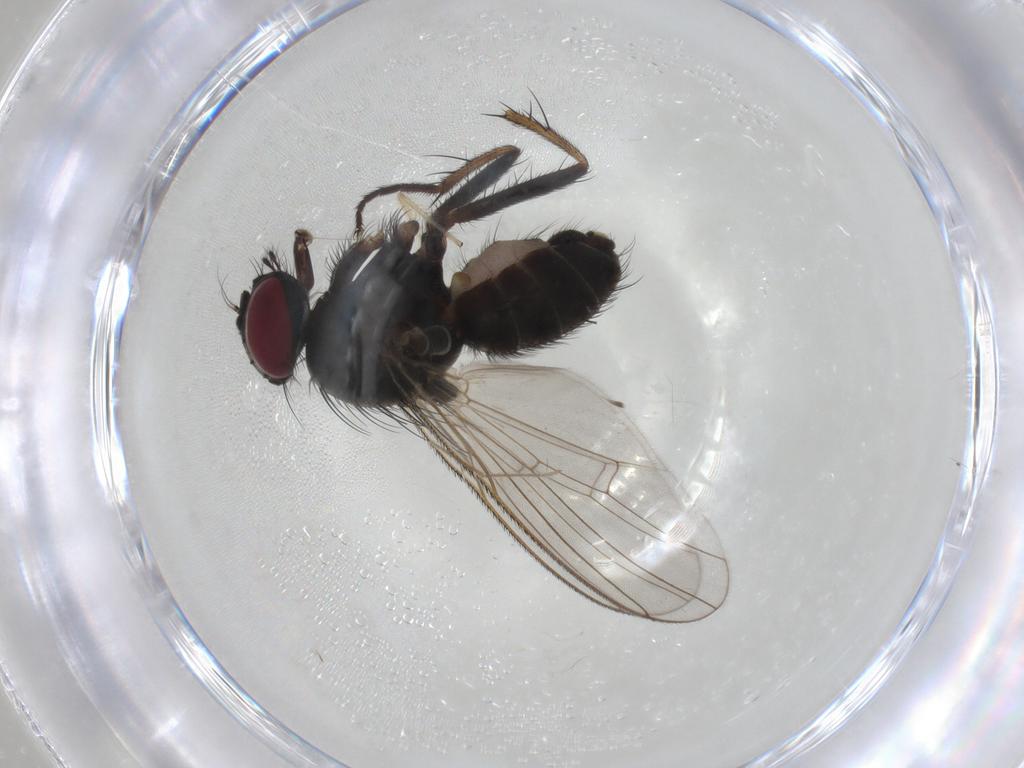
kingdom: Animalia
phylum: Arthropoda
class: Insecta
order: Diptera
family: Muscidae
